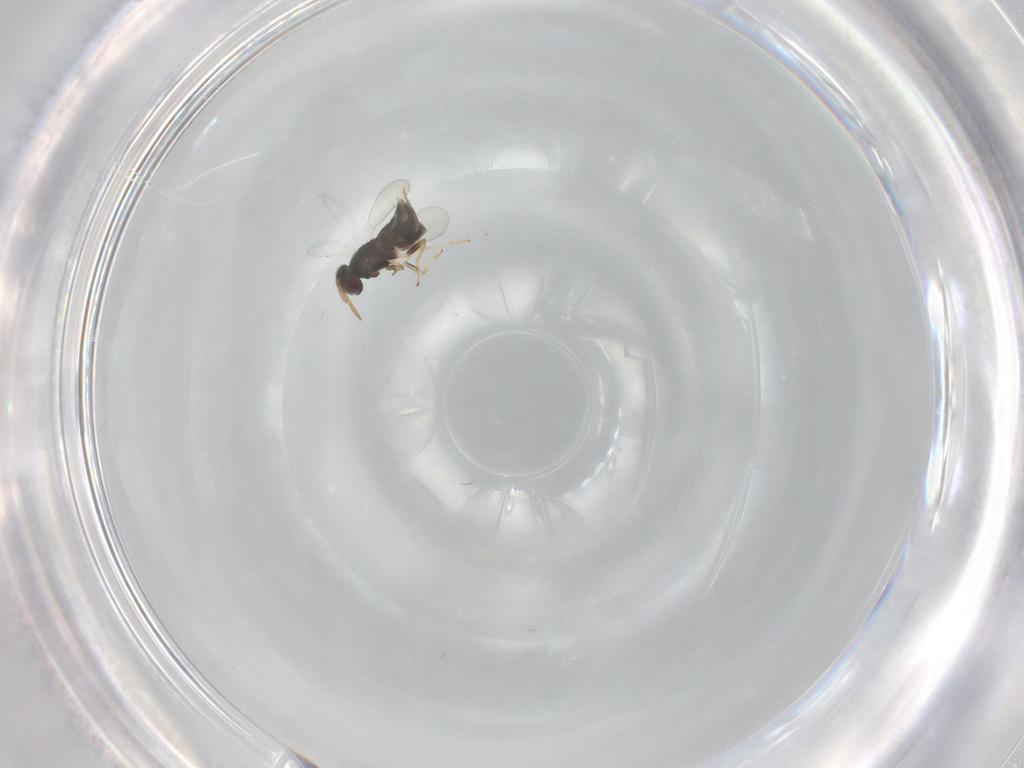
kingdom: Animalia
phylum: Arthropoda
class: Insecta
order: Hymenoptera
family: Aphelinidae
